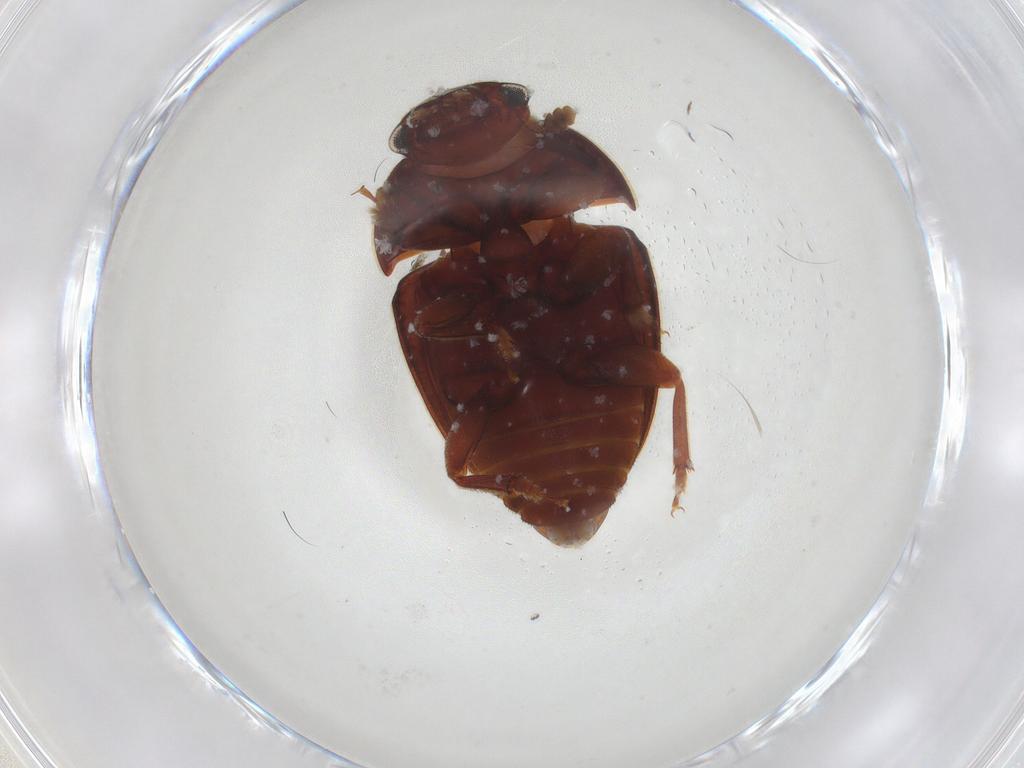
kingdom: Animalia
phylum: Arthropoda
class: Insecta
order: Coleoptera
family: Nitidulidae
